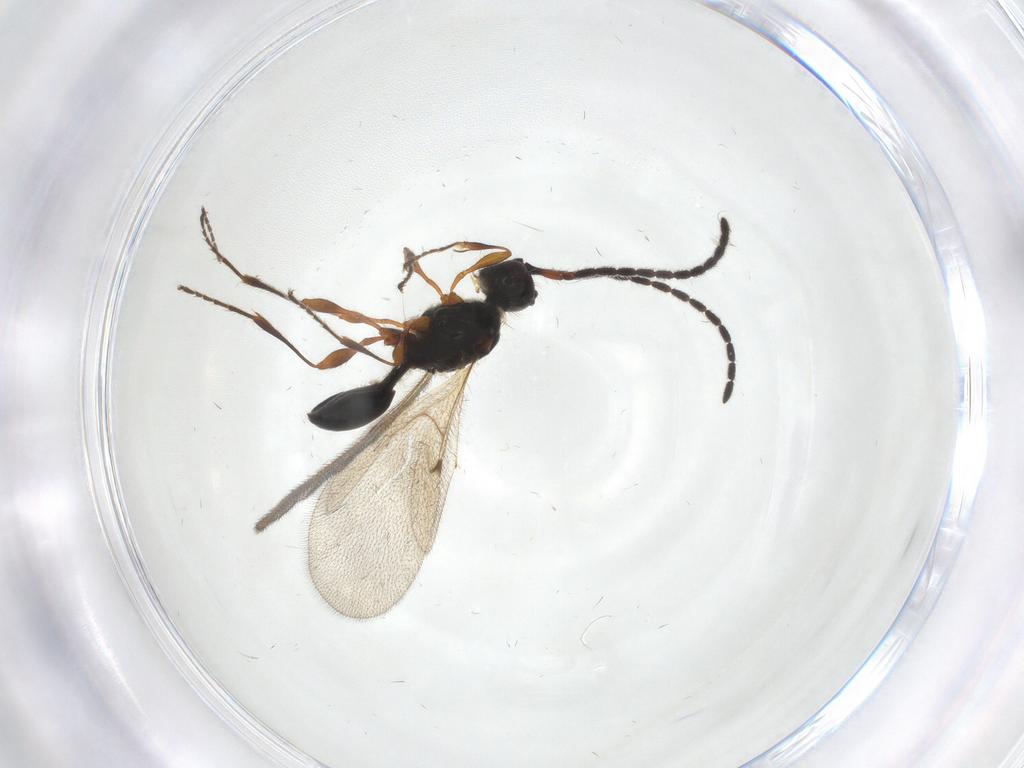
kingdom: Animalia
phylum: Arthropoda
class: Insecta
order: Hymenoptera
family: Diapriidae
